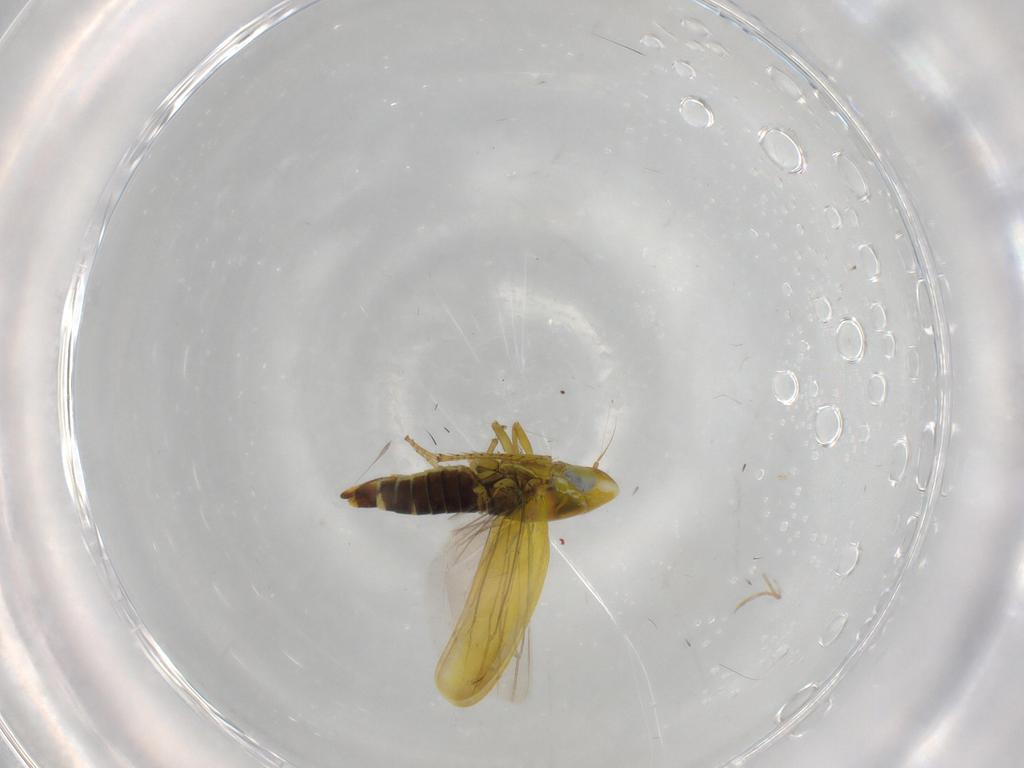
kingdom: Animalia
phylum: Arthropoda
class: Insecta
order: Hemiptera
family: Cicadellidae
